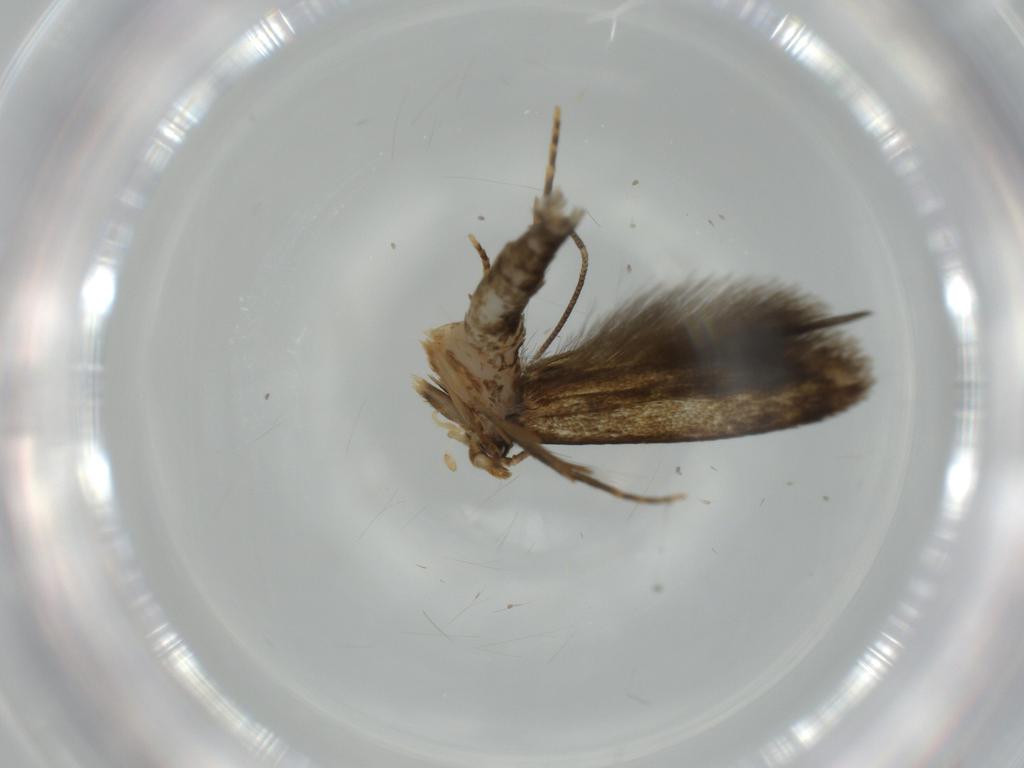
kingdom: Animalia
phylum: Arthropoda
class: Insecta
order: Lepidoptera
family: Tineidae
